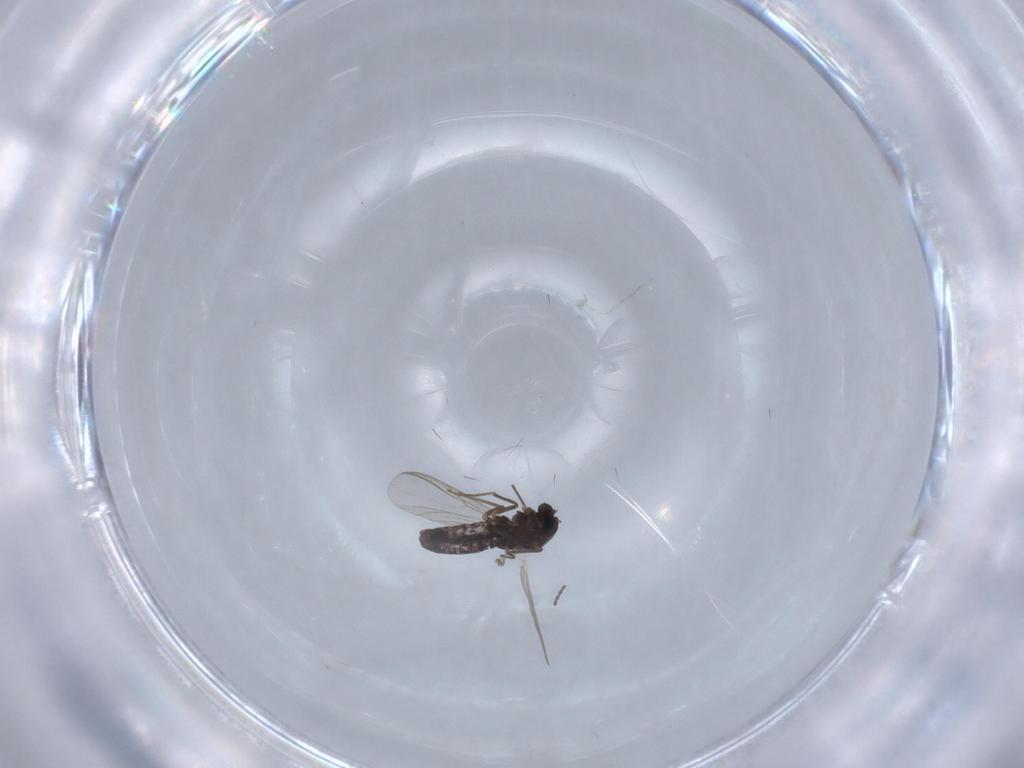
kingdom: Animalia
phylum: Arthropoda
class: Insecta
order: Diptera
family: Chironomidae
